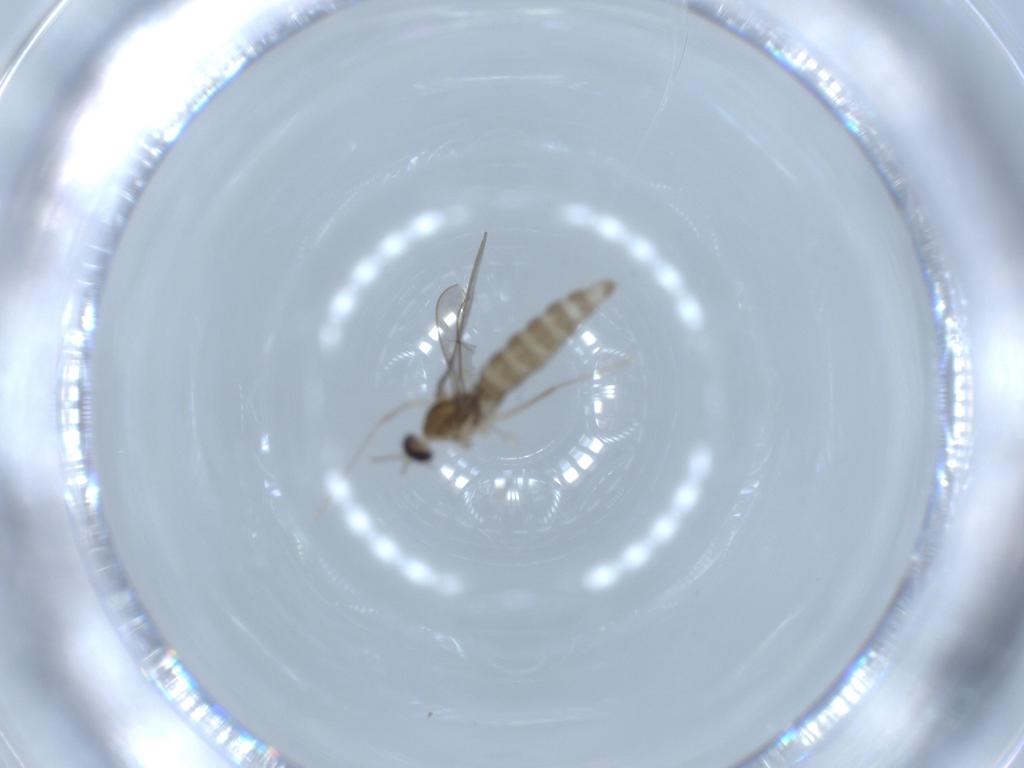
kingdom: Animalia
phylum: Arthropoda
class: Insecta
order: Diptera
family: Cecidomyiidae
